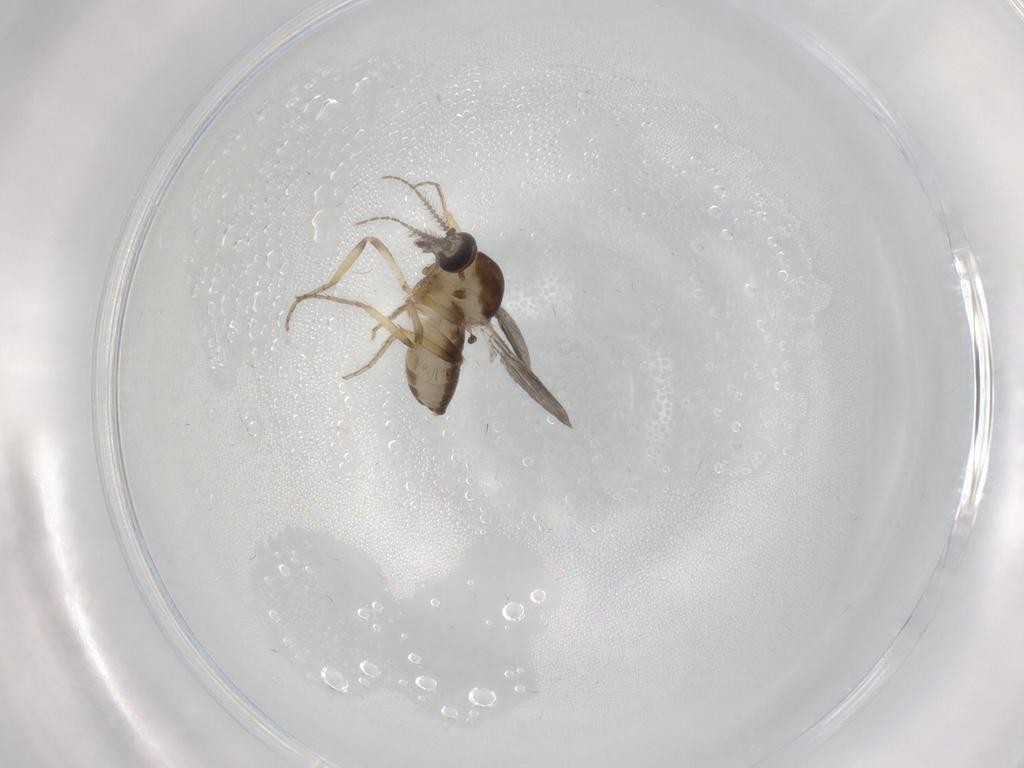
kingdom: Animalia
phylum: Arthropoda
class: Insecta
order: Diptera
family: Ceratopogonidae
